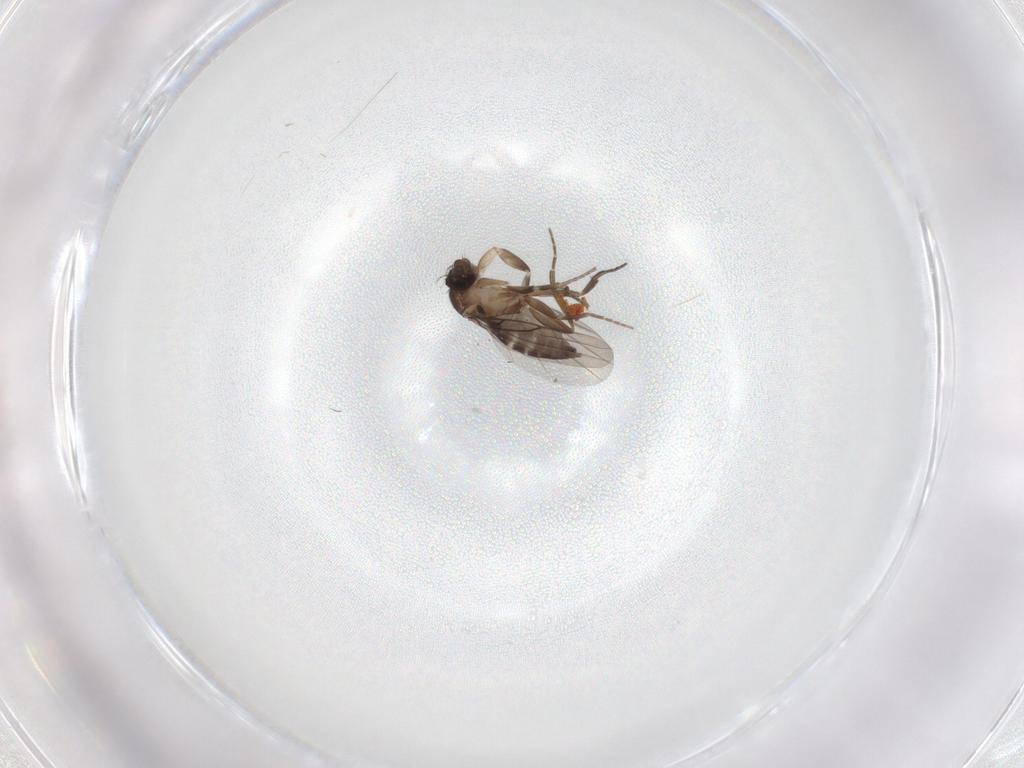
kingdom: Animalia
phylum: Arthropoda
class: Insecta
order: Diptera
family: Phoridae
